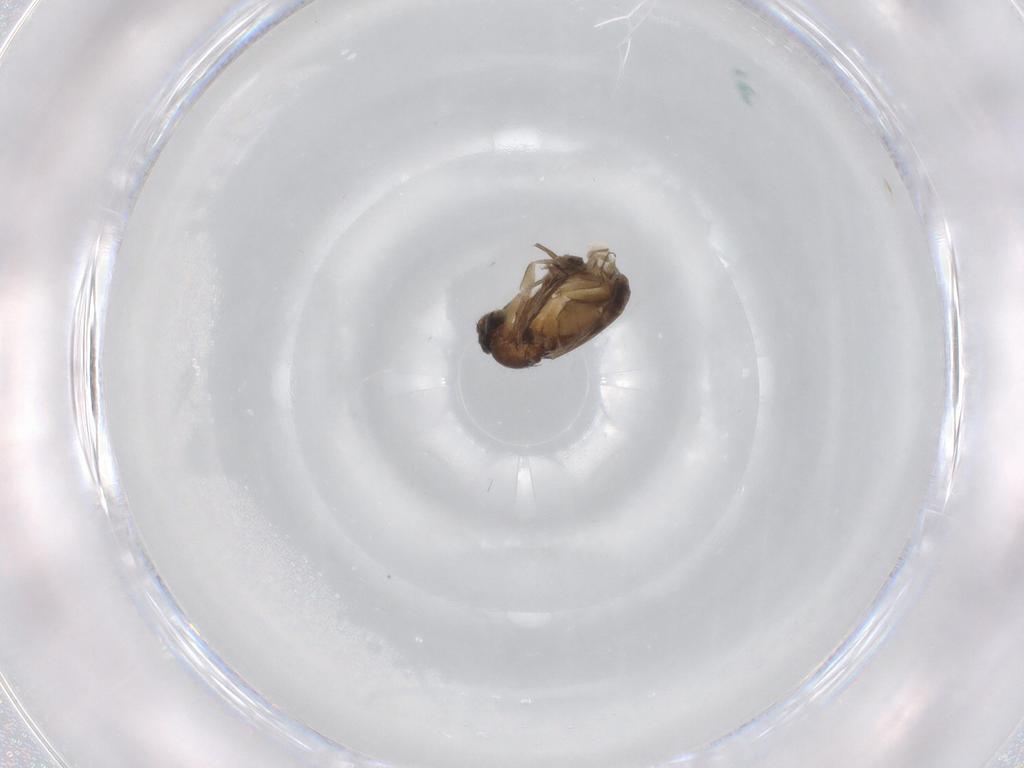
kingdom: Animalia
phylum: Arthropoda
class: Insecta
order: Diptera
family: Phoridae
